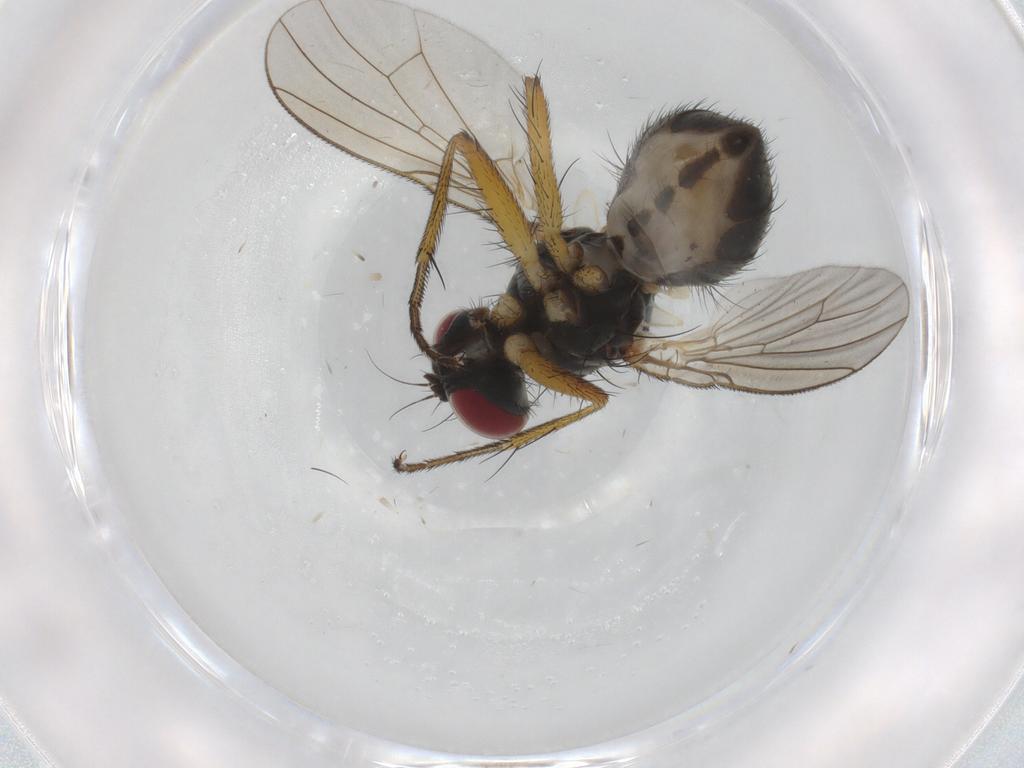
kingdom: Animalia
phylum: Arthropoda
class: Insecta
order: Diptera
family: Muscidae
